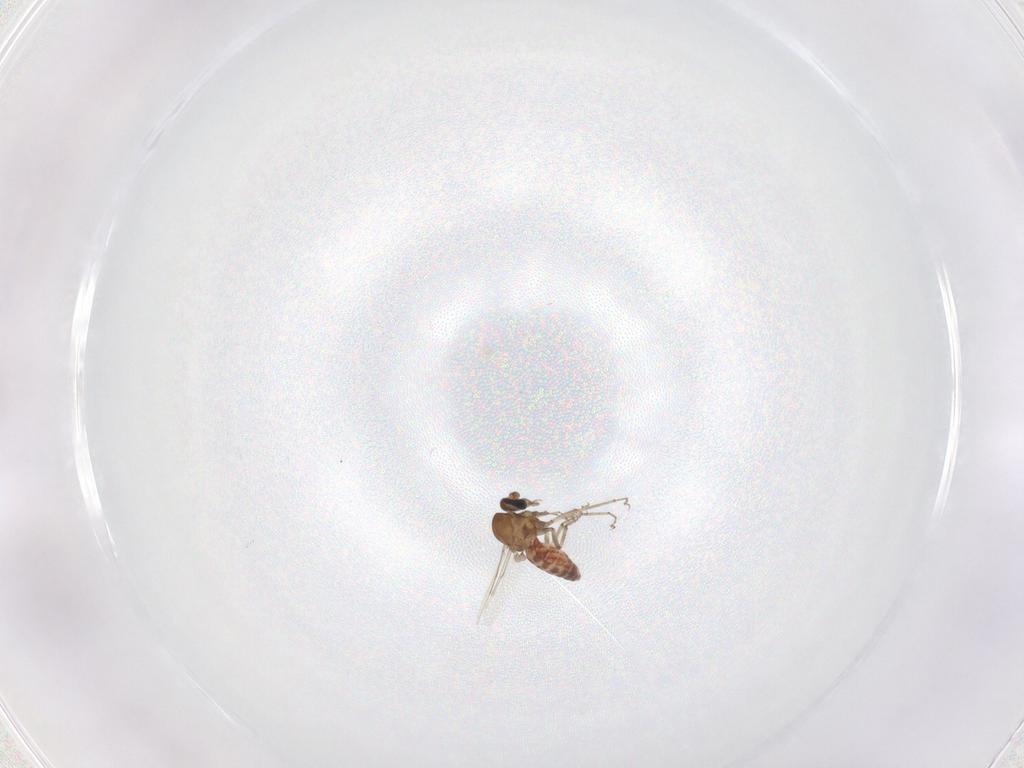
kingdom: Animalia
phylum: Arthropoda
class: Insecta
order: Diptera
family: Ceratopogonidae
